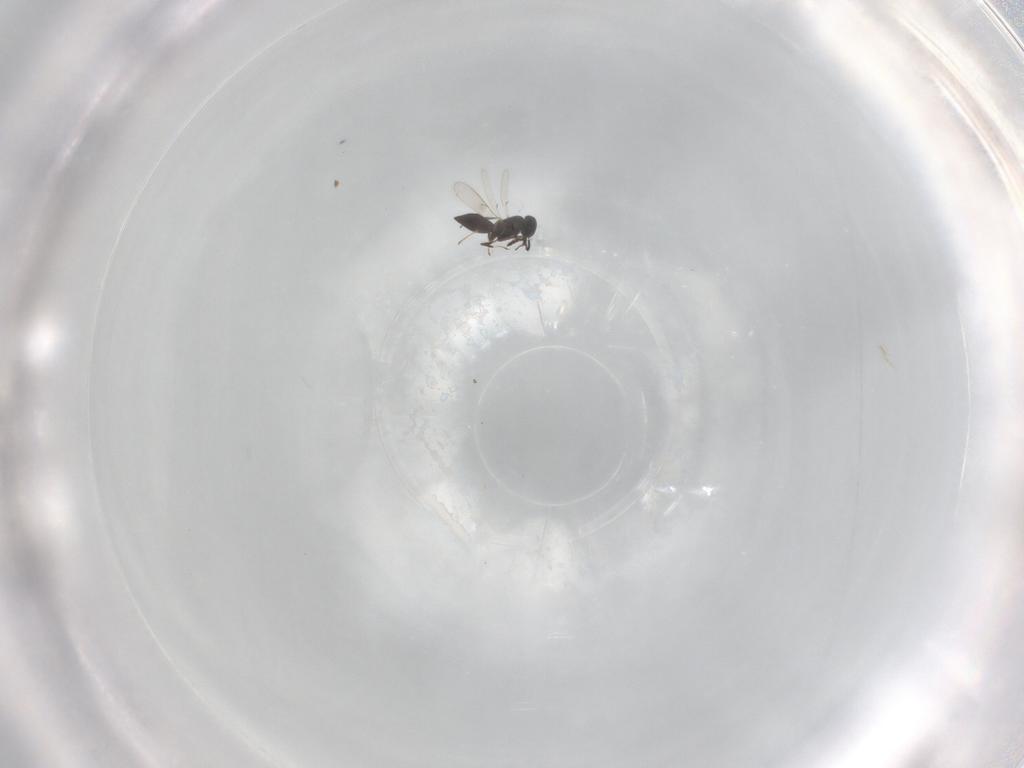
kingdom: Animalia
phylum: Arthropoda
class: Insecta
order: Hymenoptera
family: Scelionidae
